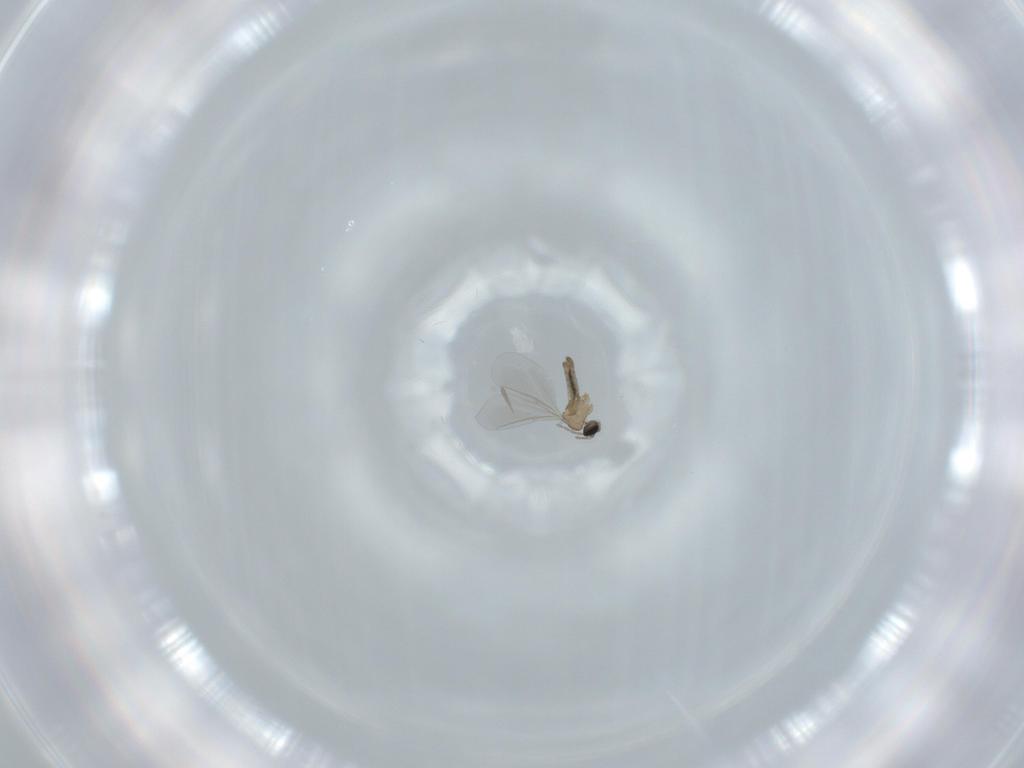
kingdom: Animalia
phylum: Arthropoda
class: Insecta
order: Diptera
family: Cecidomyiidae
